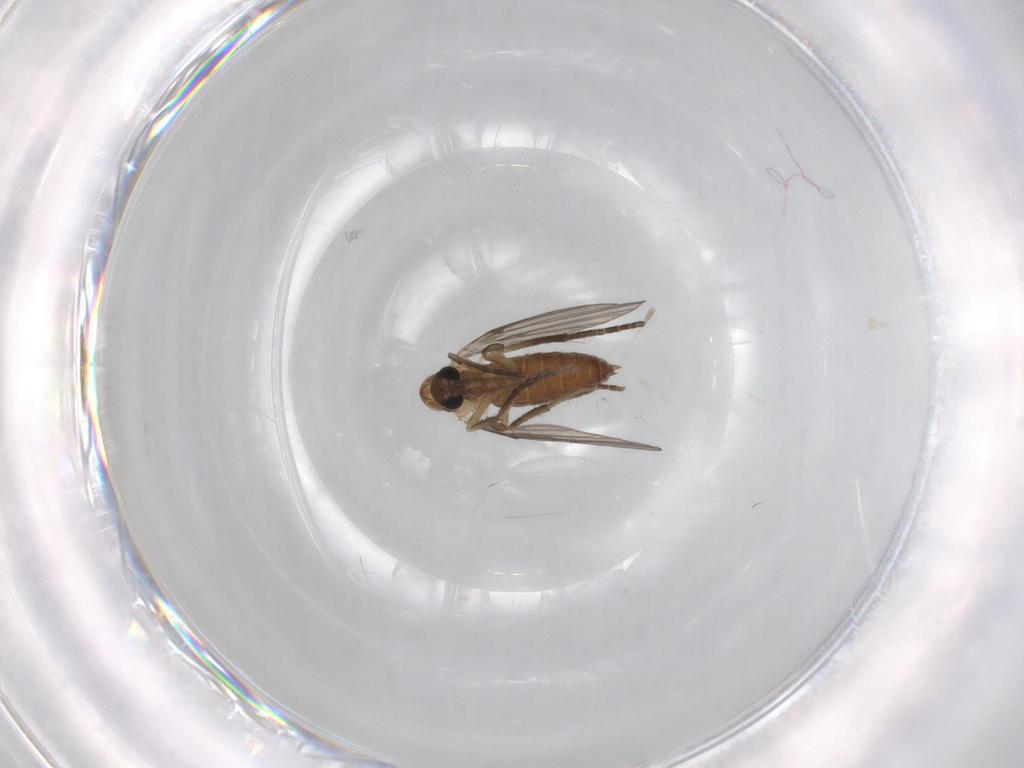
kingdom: Animalia
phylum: Arthropoda
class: Insecta
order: Diptera
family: Limoniidae
